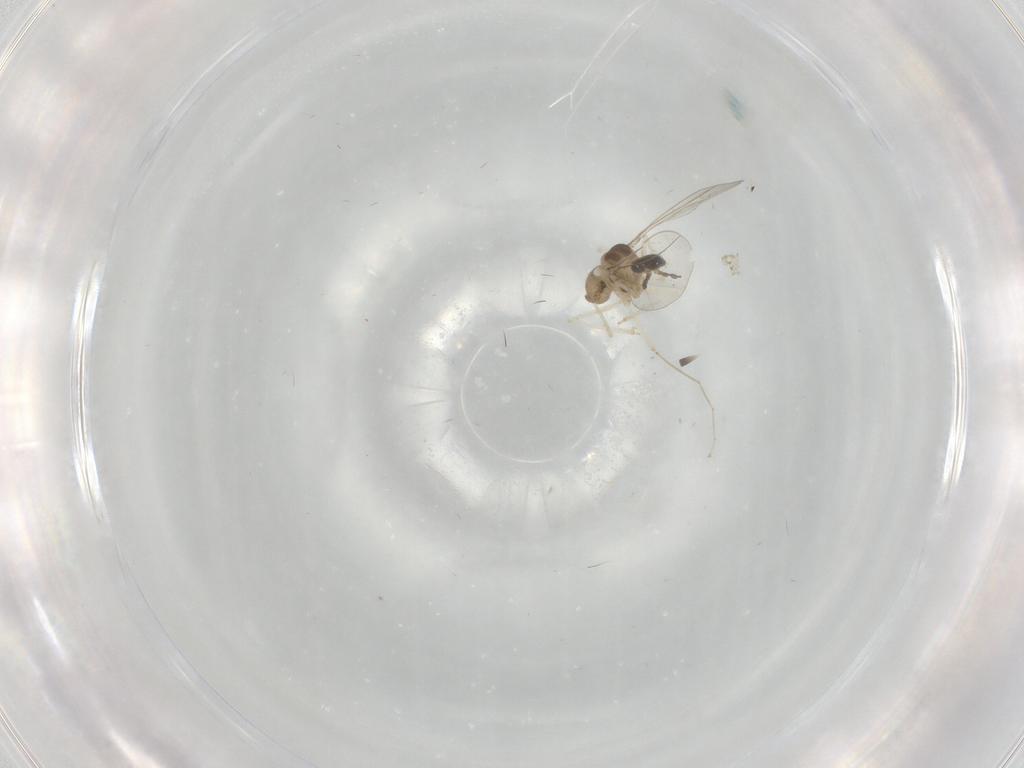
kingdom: Animalia
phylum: Arthropoda
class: Insecta
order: Diptera
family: Cecidomyiidae
